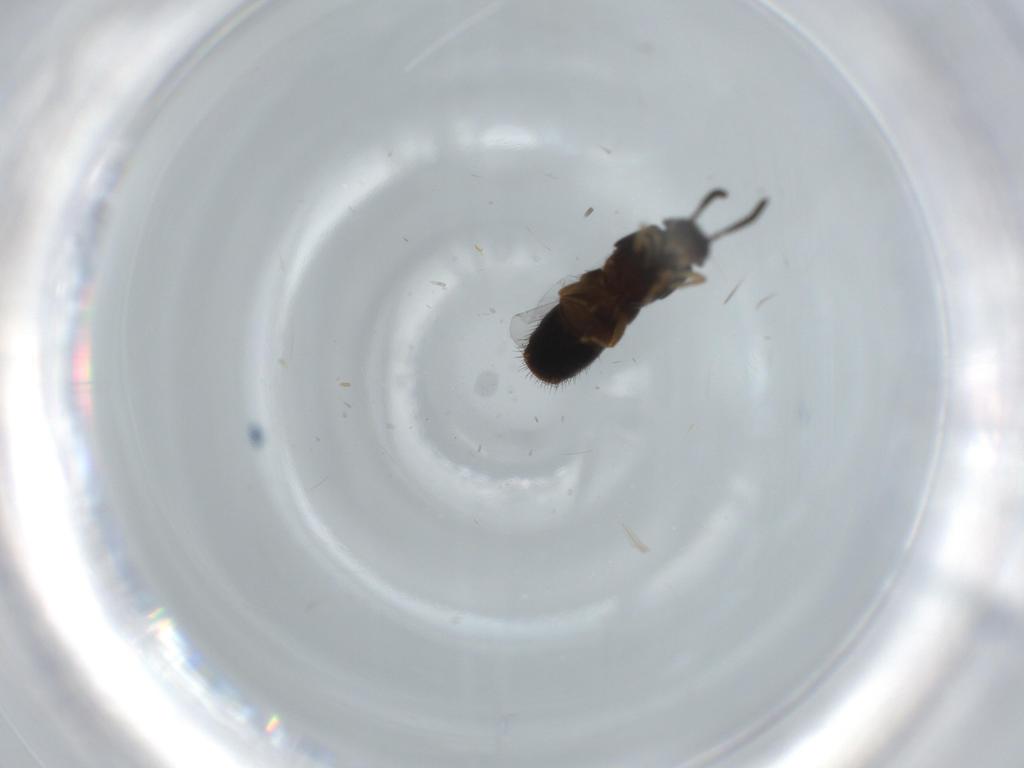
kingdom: Animalia
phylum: Arthropoda
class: Insecta
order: Coleoptera
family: Staphylinidae
